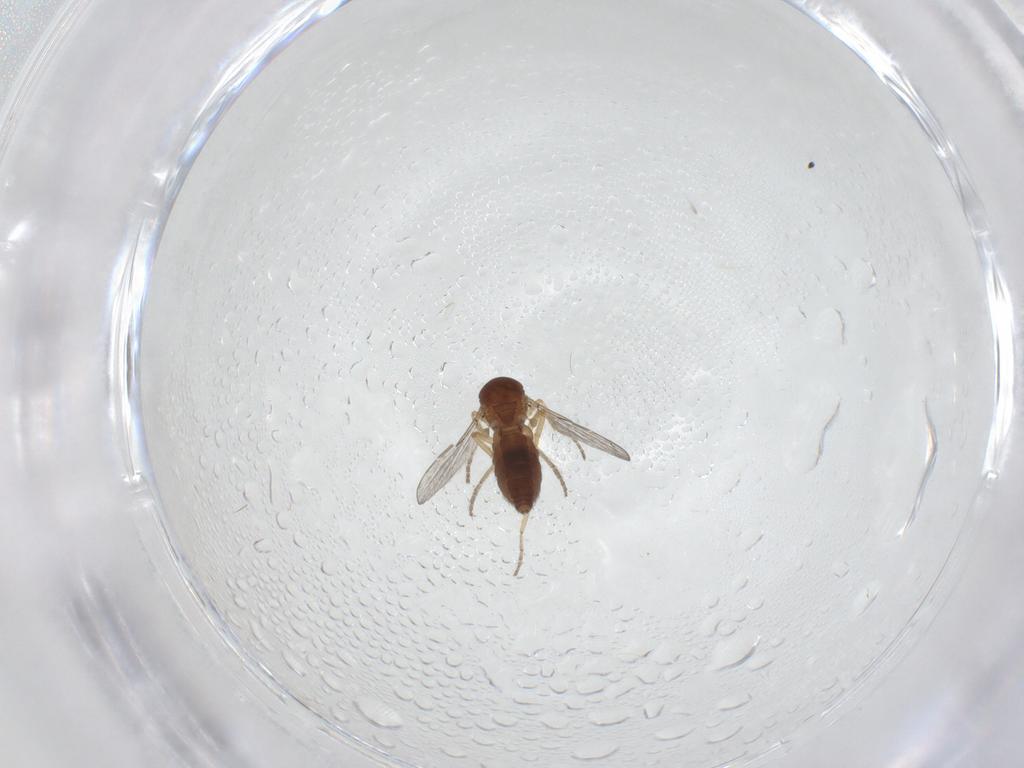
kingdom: Animalia
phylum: Arthropoda
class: Insecta
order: Diptera
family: Ceratopogonidae
